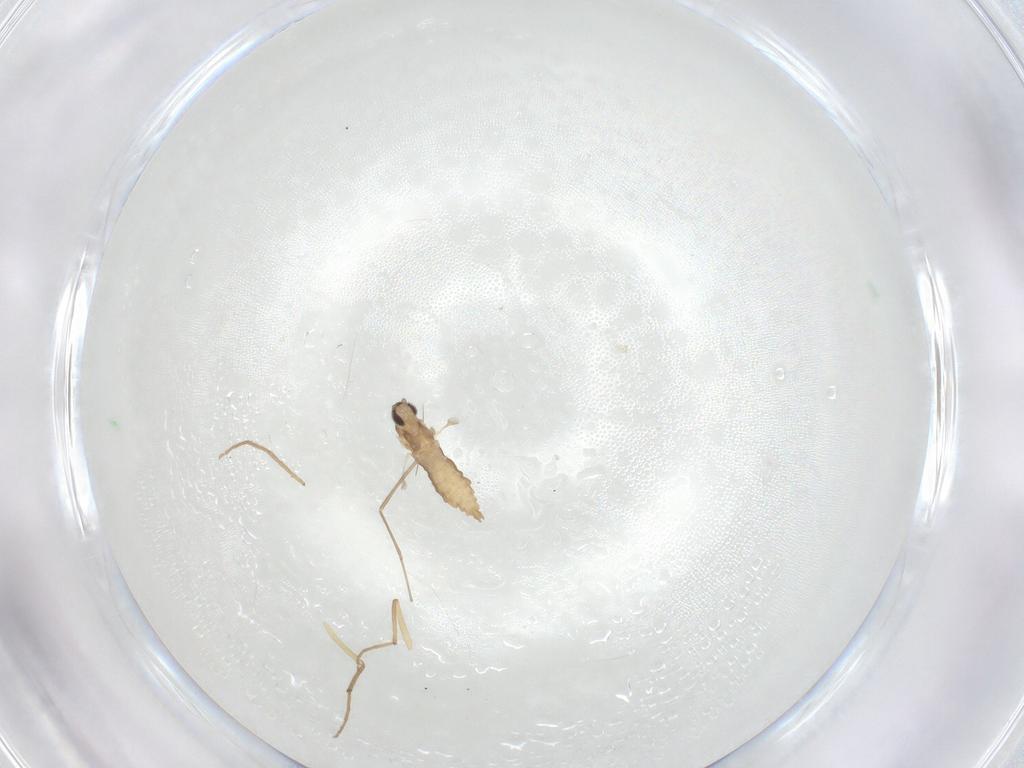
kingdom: Animalia
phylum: Arthropoda
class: Insecta
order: Diptera
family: Cecidomyiidae
